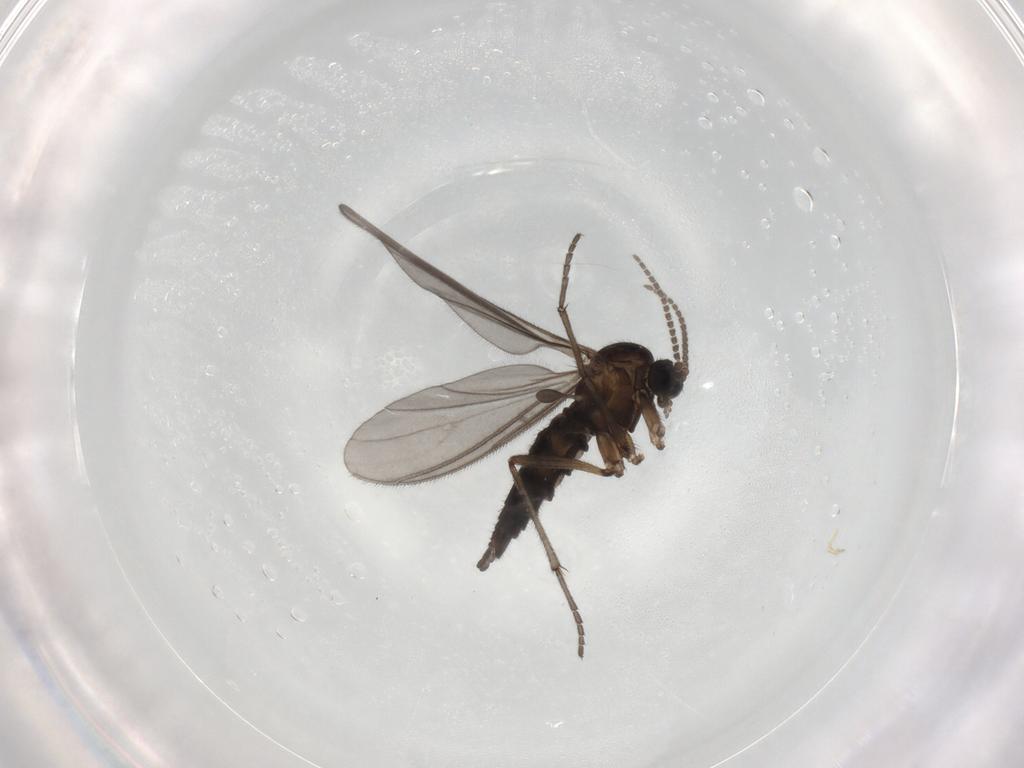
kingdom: Animalia
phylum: Arthropoda
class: Insecta
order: Diptera
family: Sciaridae
